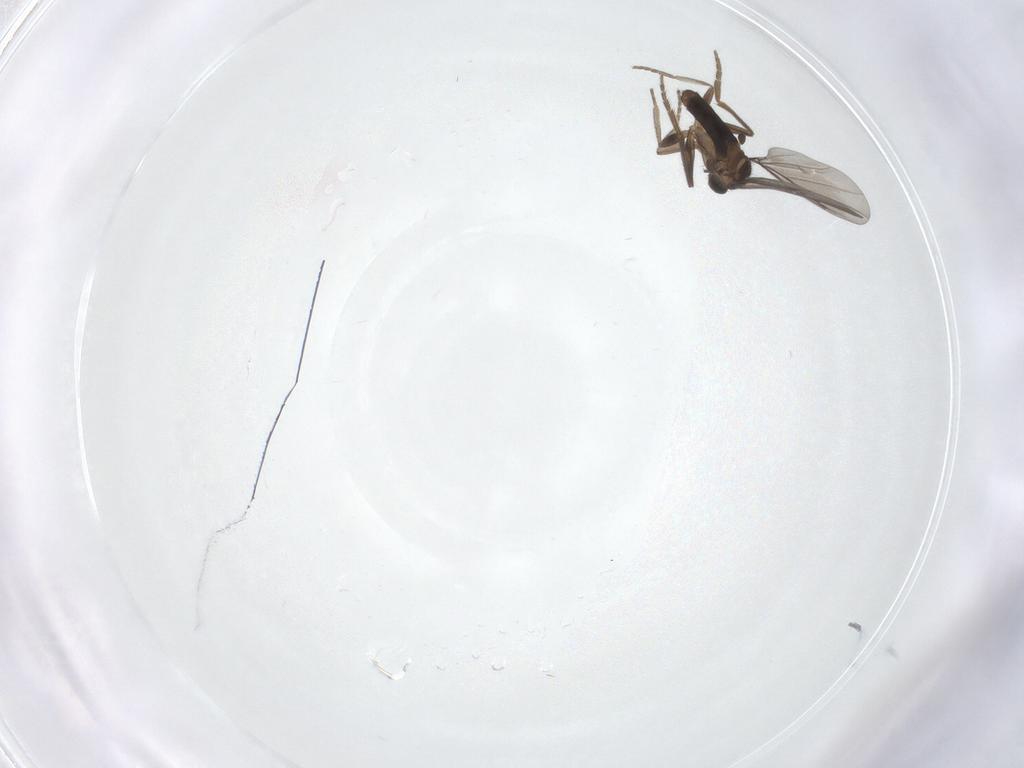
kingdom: Animalia
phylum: Arthropoda
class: Insecta
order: Diptera
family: Phoridae
